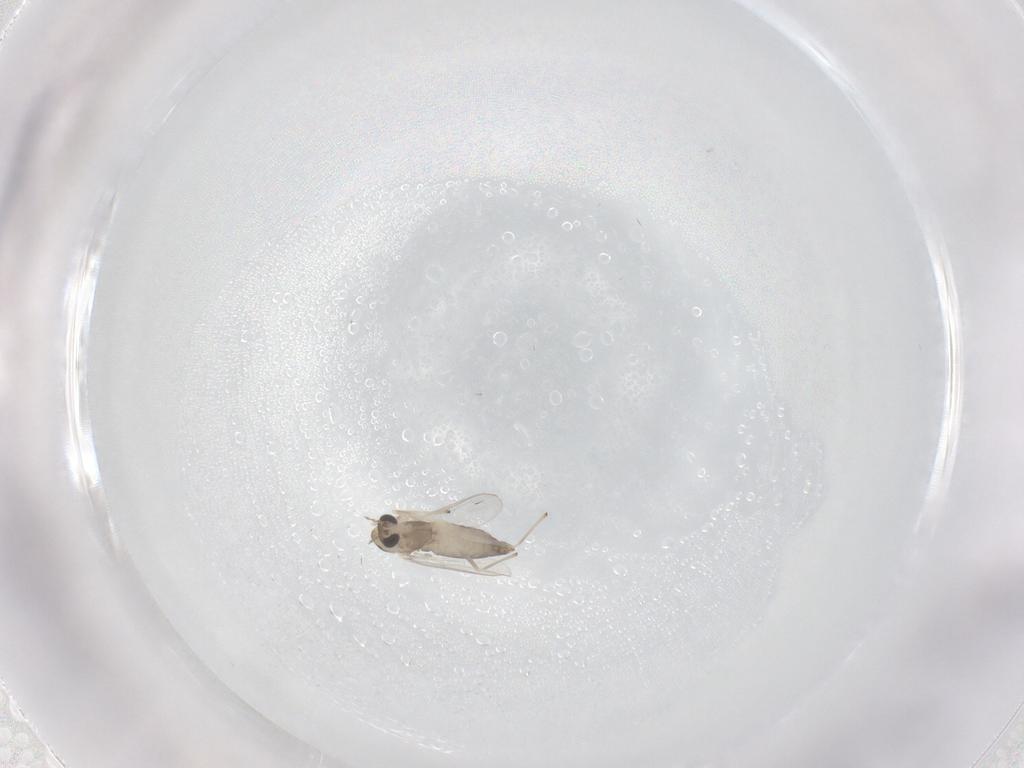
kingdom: Animalia
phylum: Arthropoda
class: Insecta
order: Diptera
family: Chironomidae
